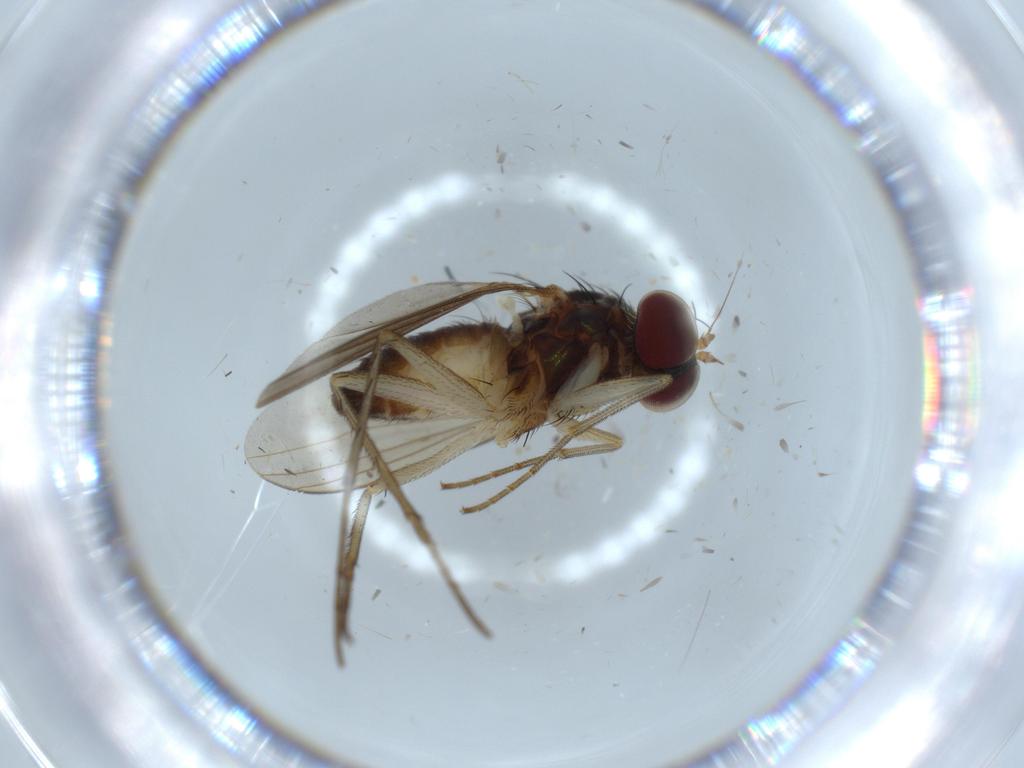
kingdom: Animalia
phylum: Arthropoda
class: Insecta
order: Diptera
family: Dolichopodidae
